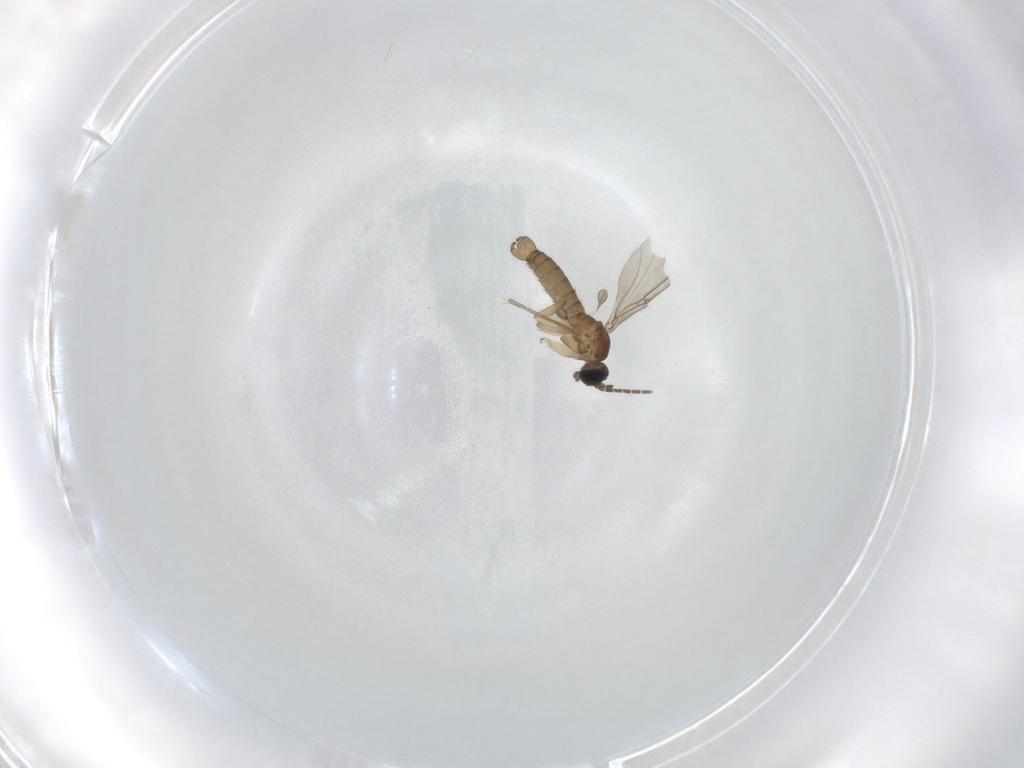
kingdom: Animalia
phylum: Arthropoda
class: Insecta
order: Diptera
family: Sciaridae
